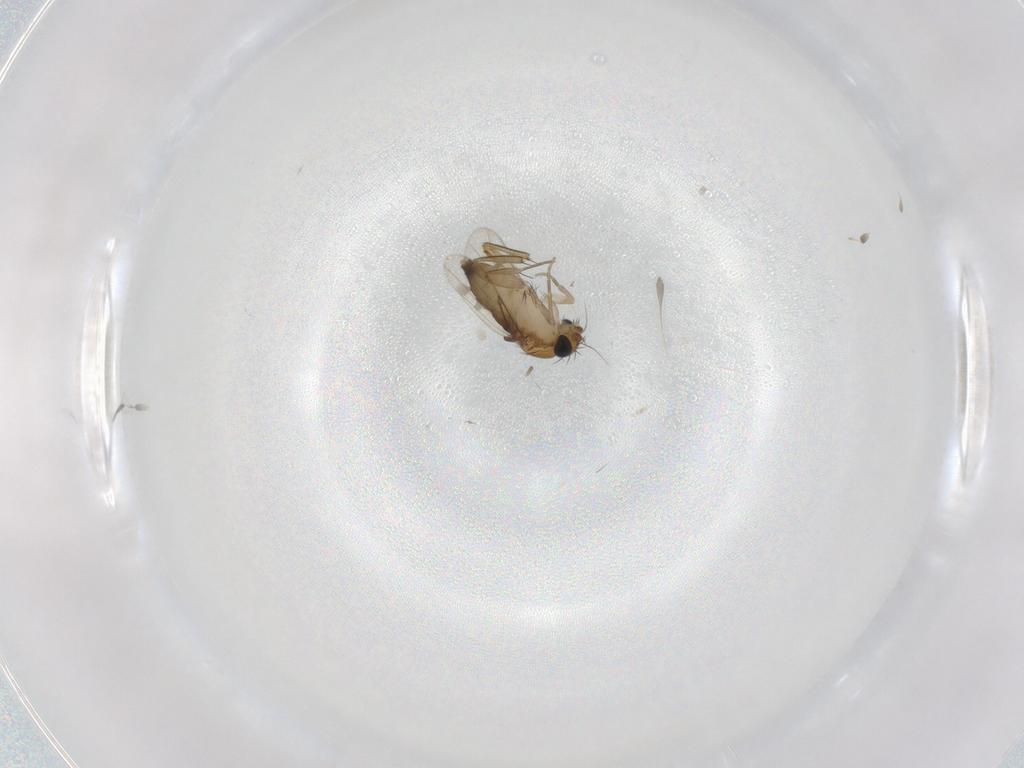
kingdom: Animalia
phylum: Arthropoda
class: Insecta
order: Diptera
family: Phoridae
